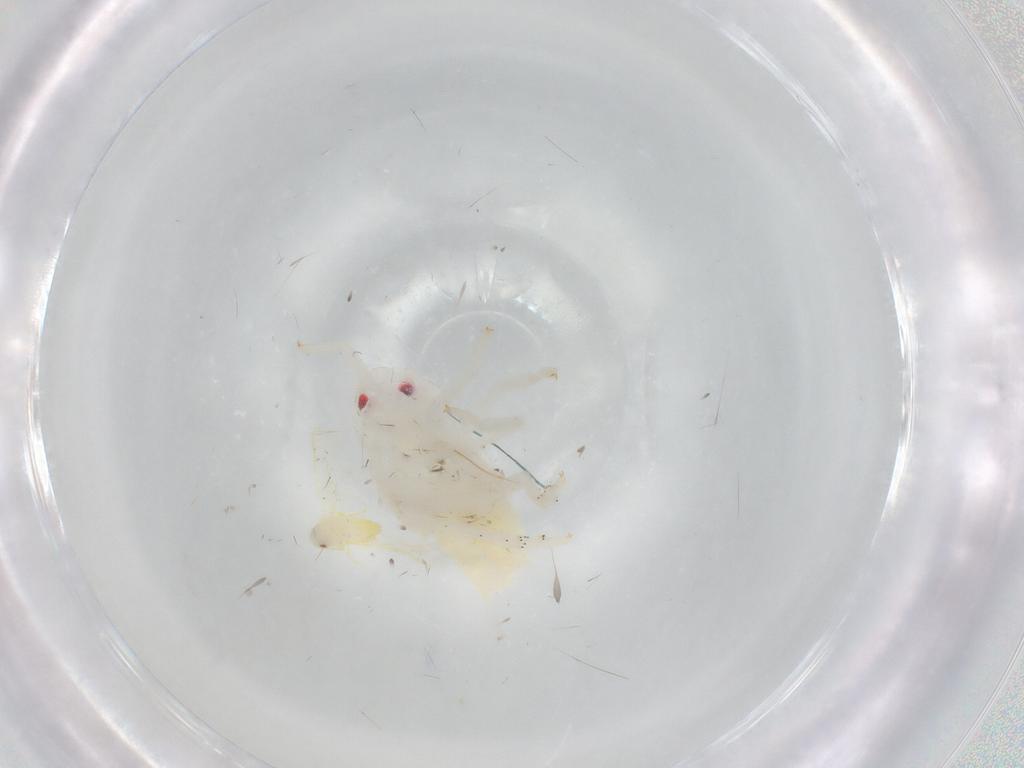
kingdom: Animalia
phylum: Arthropoda
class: Insecta
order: Hemiptera
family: Aleyrodidae
